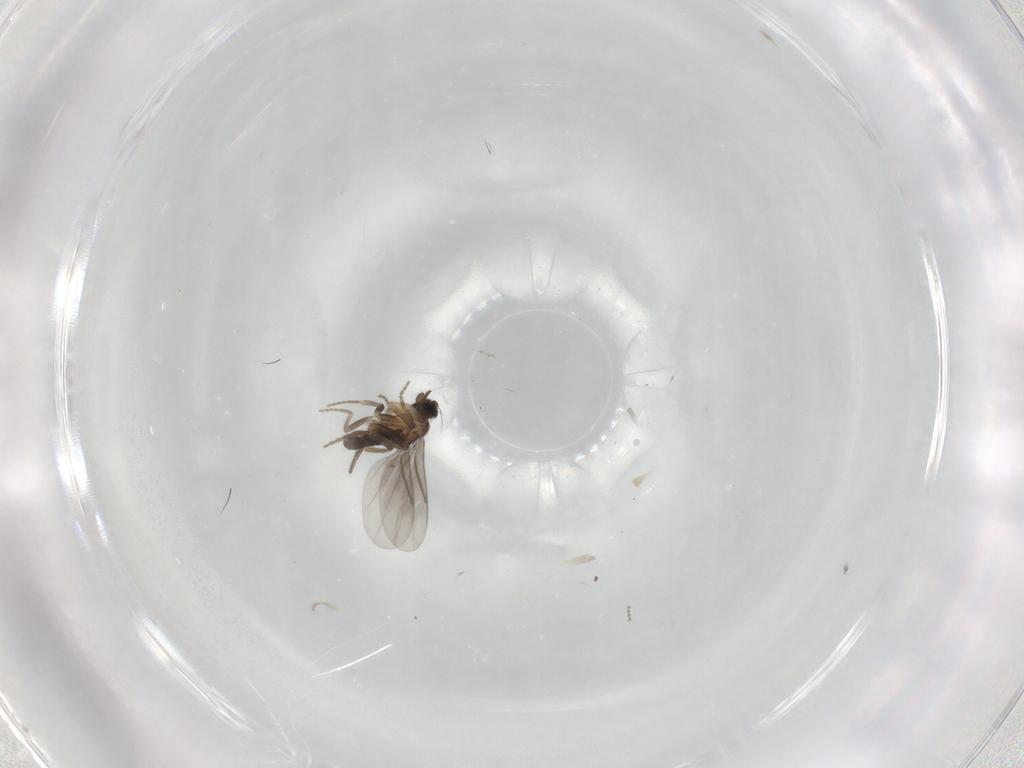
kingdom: Animalia
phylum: Arthropoda
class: Insecta
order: Diptera
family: Cecidomyiidae
